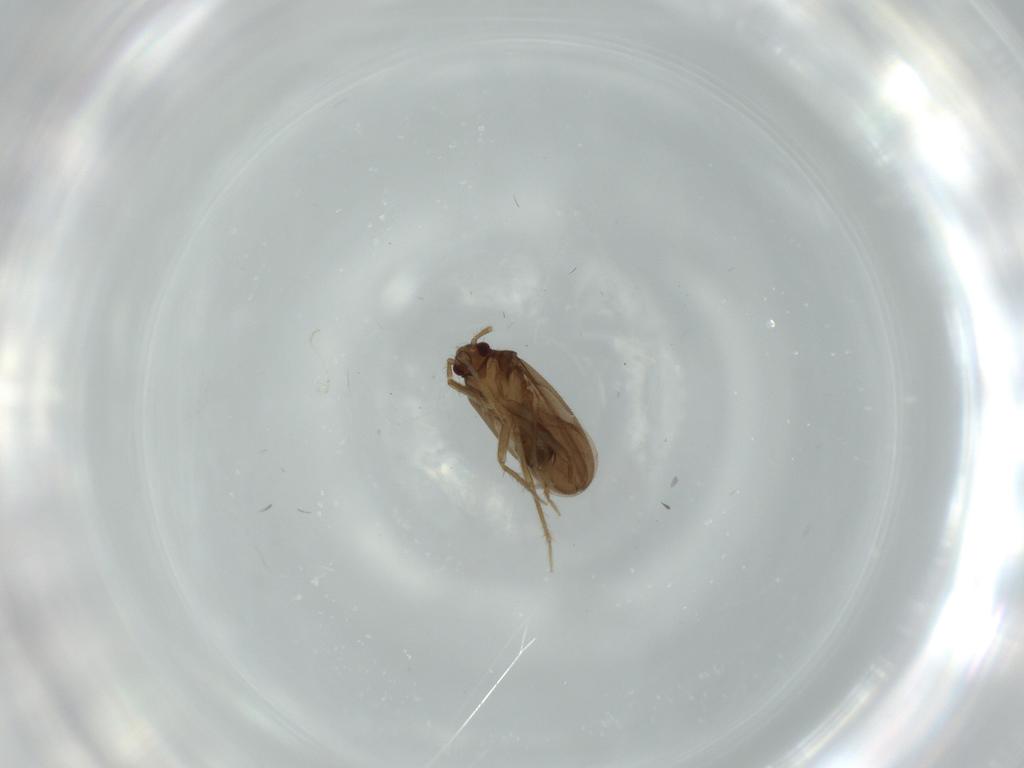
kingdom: Animalia
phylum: Arthropoda
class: Insecta
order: Hemiptera
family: Ceratocombidae
